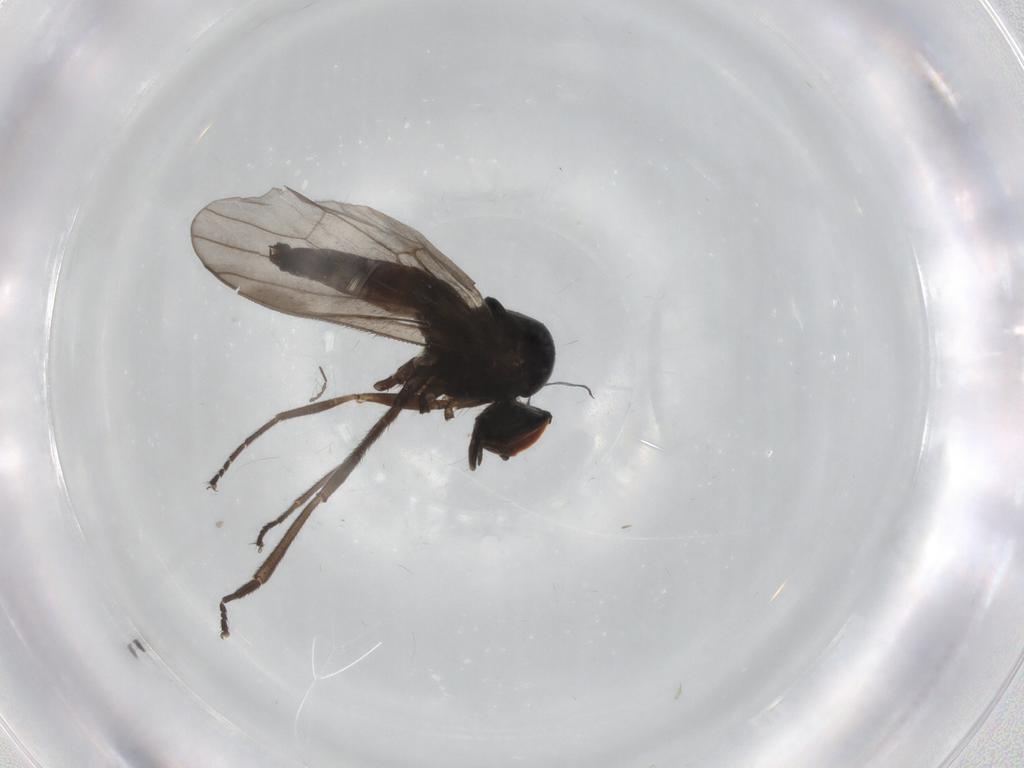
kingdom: Animalia
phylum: Arthropoda
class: Insecta
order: Diptera
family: Hybotidae
